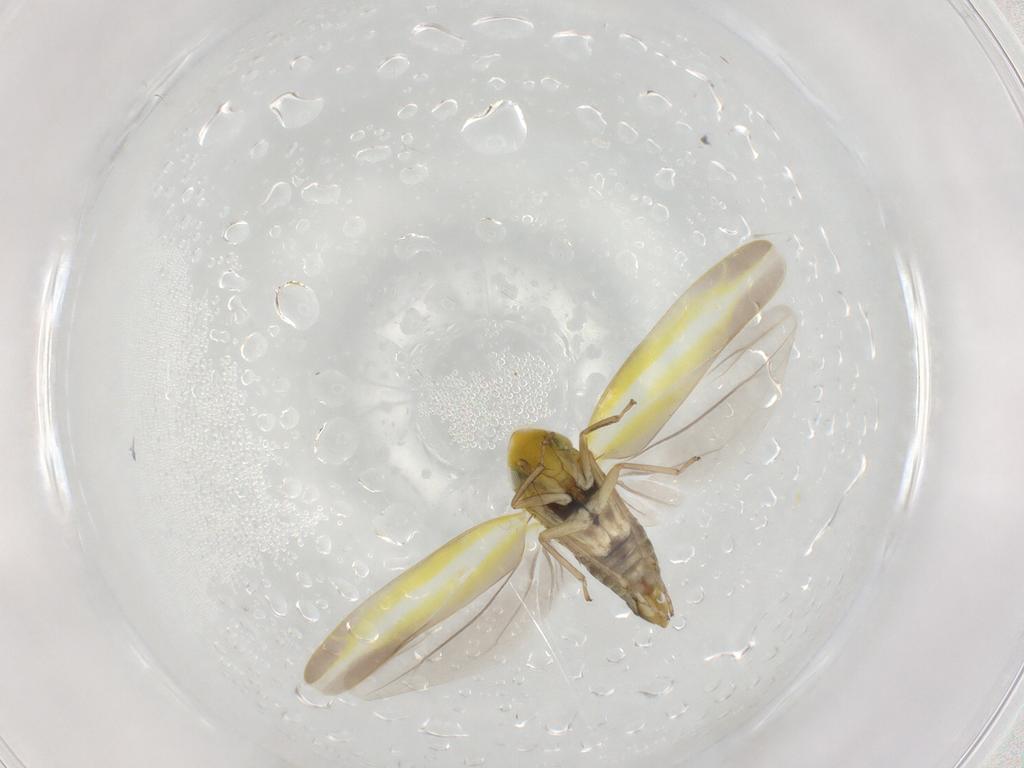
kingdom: Animalia
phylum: Arthropoda
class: Insecta
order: Hemiptera
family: Cicadellidae
